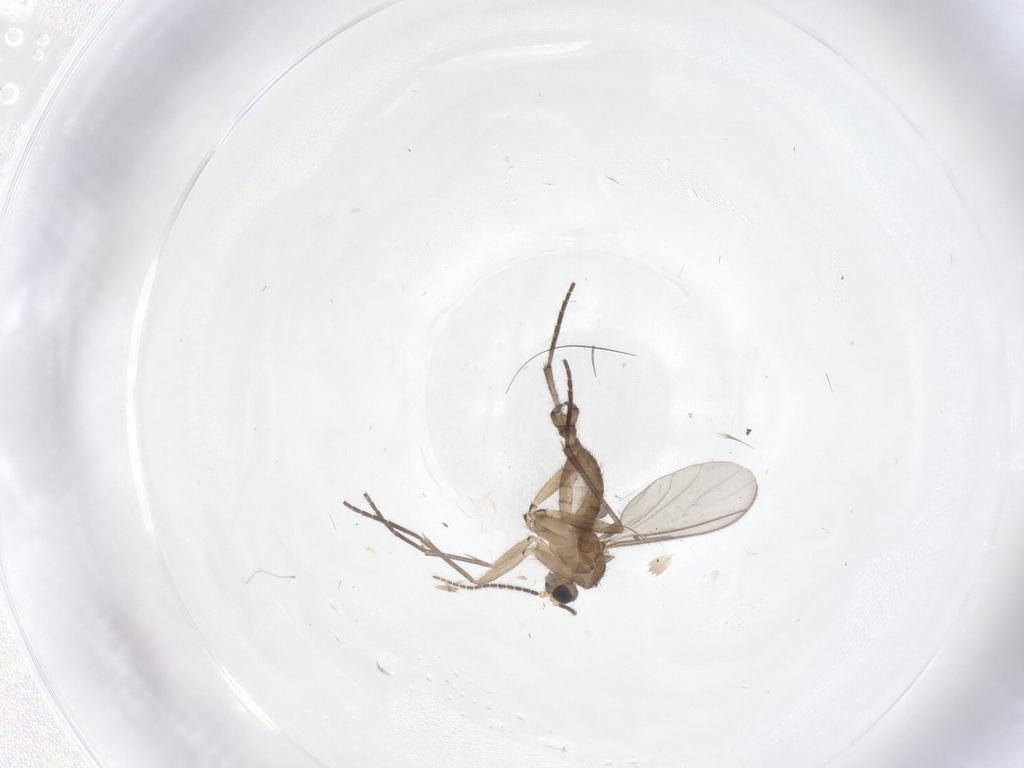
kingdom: Animalia
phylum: Arthropoda
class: Insecta
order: Diptera
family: Sciaridae
